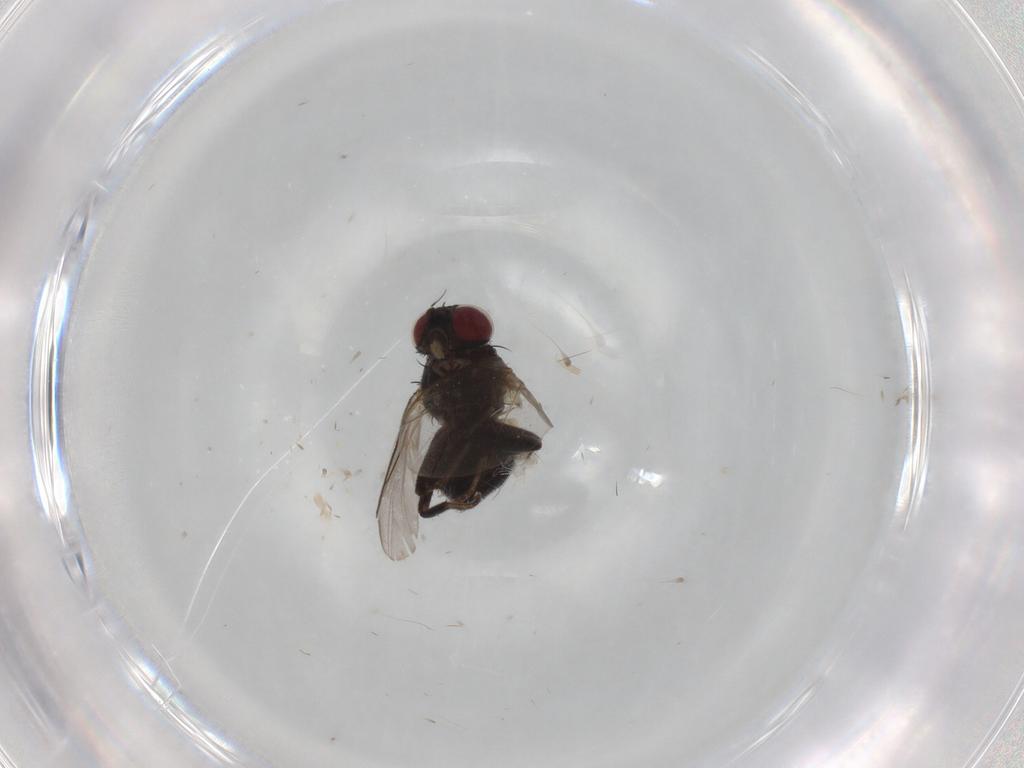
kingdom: Animalia
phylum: Arthropoda
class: Insecta
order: Diptera
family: Agromyzidae
